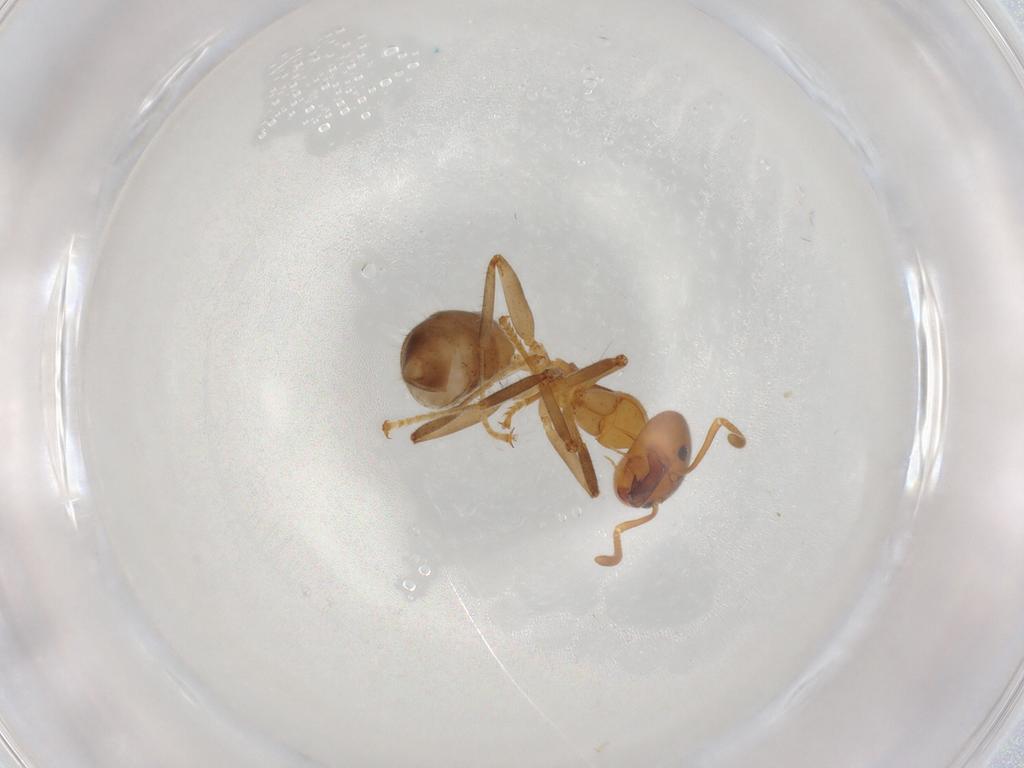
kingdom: Animalia
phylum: Arthropoda
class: Insecta
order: Hymenoptera
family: Formicidae
